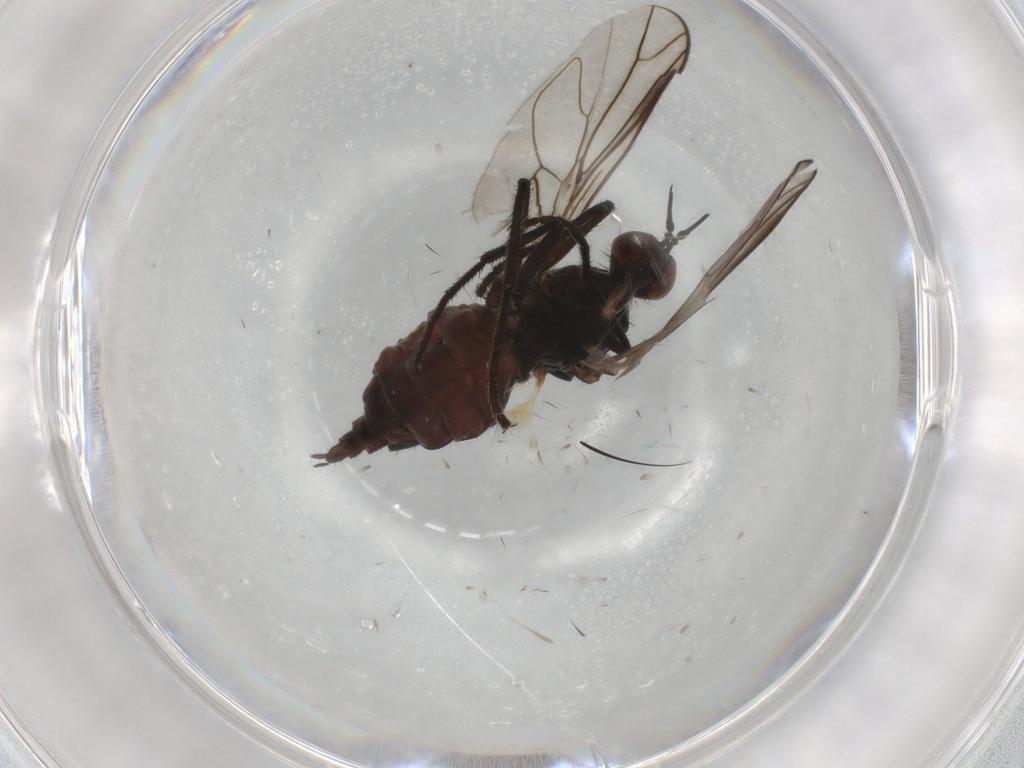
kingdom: Animalia
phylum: Arthropoda
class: Insecta
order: Diptera
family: Empididae
